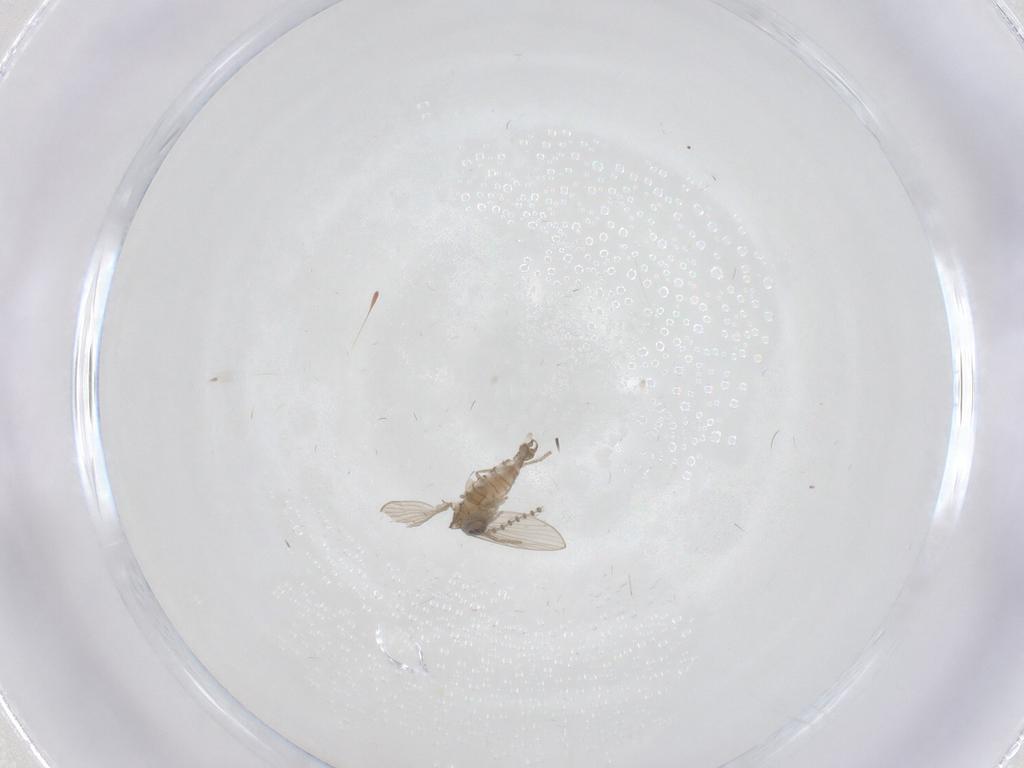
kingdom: Animalia
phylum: Arthropoda
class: Insecta
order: Diptera
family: Psychodidae
